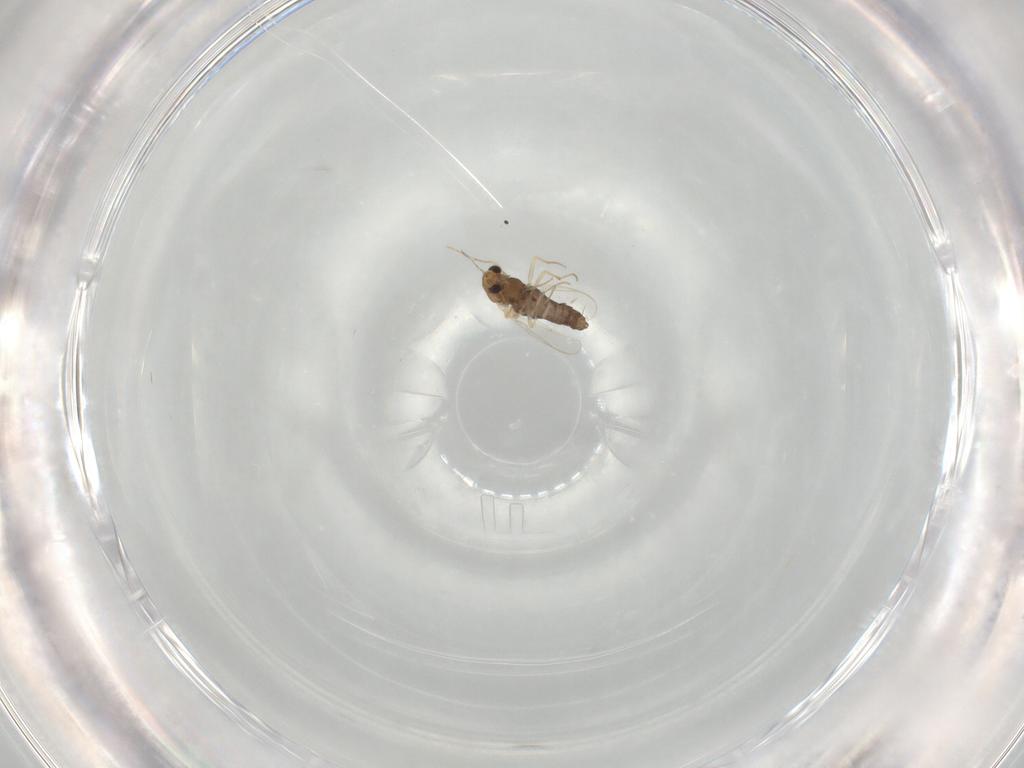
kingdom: Animalia
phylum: Arthropoda
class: Insecta
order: Diptera
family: Chironomidae
